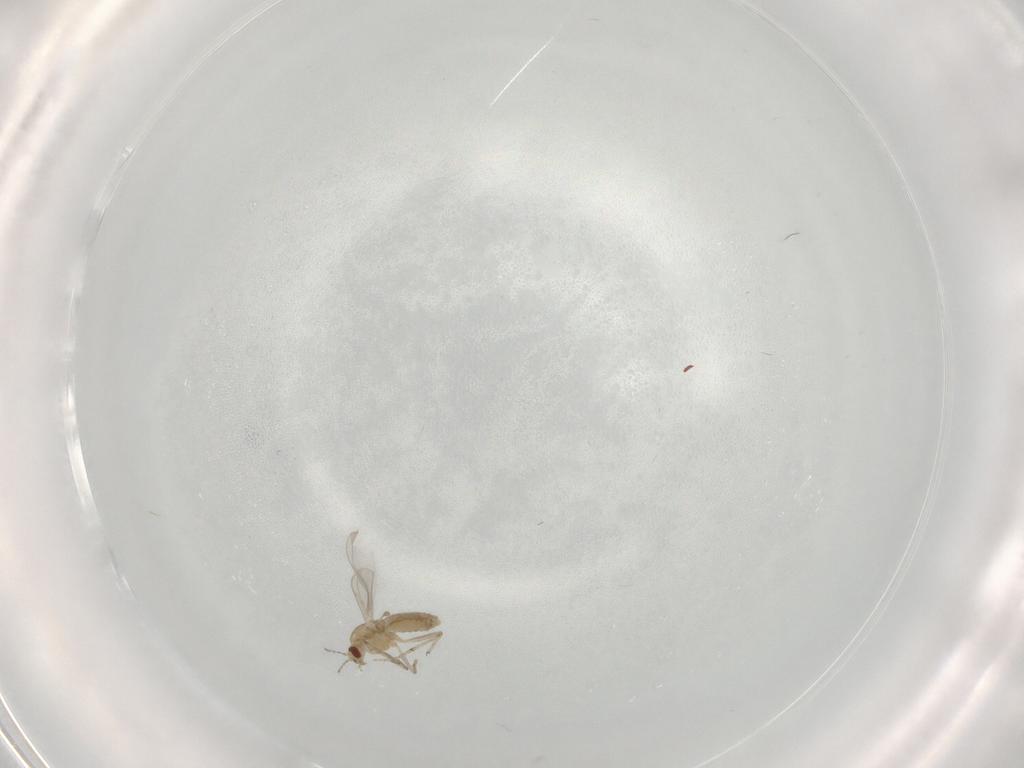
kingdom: Animalia
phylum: Arthropoda
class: Insecta
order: Diptera
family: Chironomidae
